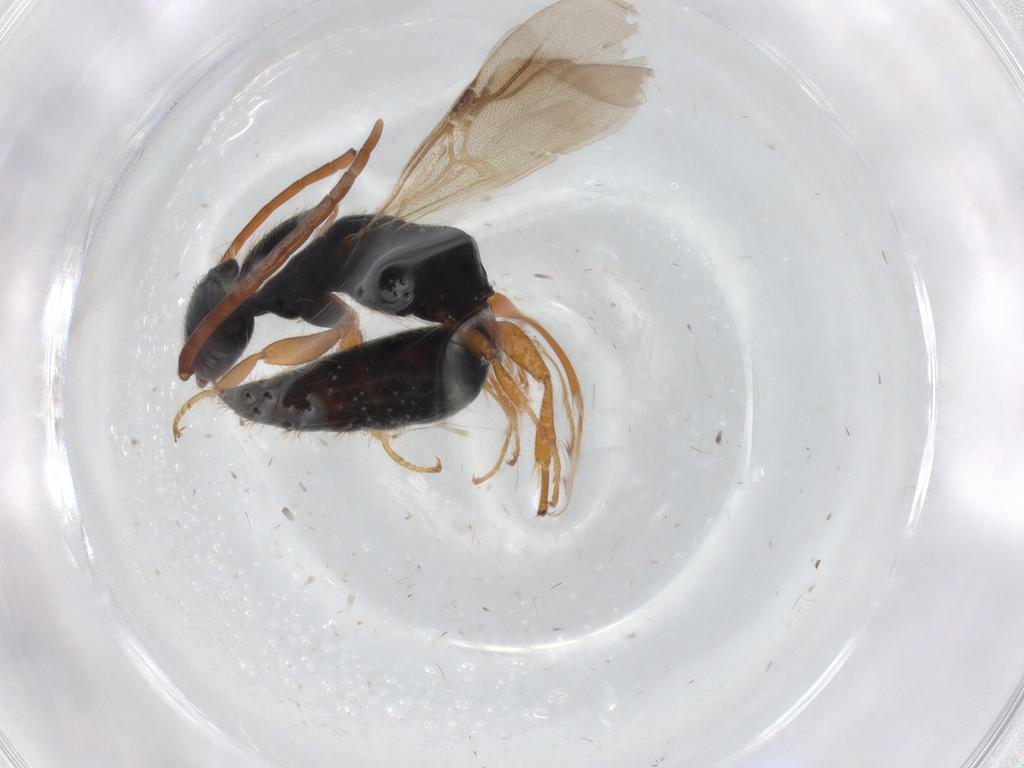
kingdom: Animalia
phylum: Arthropoda
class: Insecta
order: Hymenoptera
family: Bethylidae
